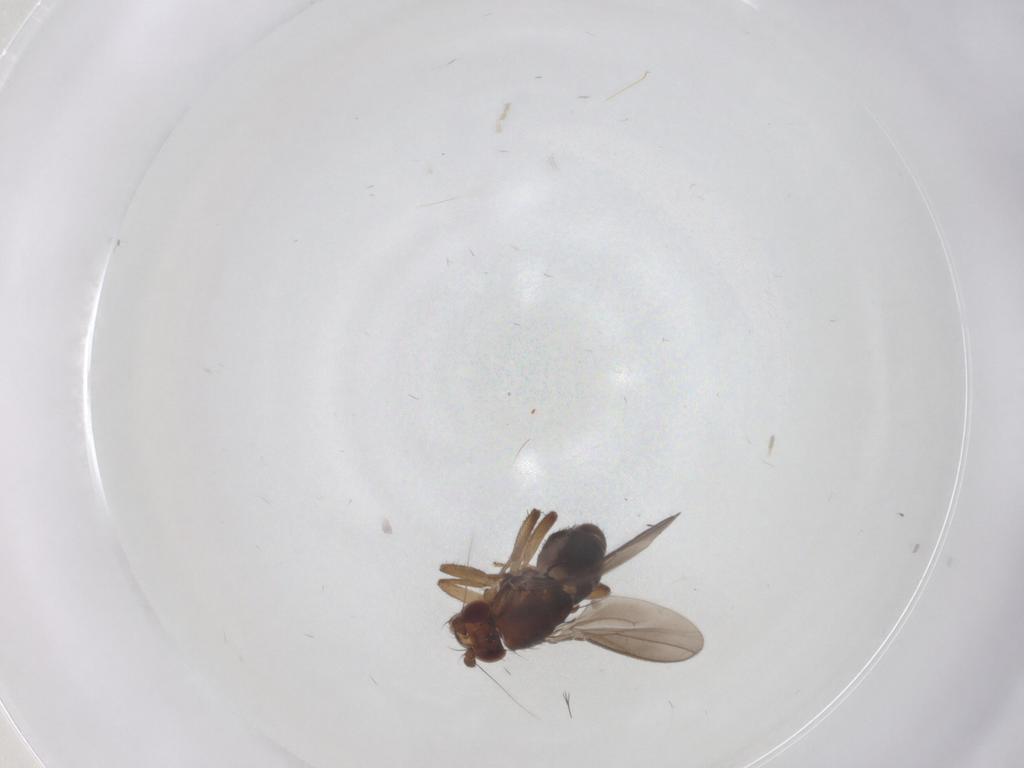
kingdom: Animalia
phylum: Arthropoda
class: Insecta
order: Diptera
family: Sphaeroceridae
